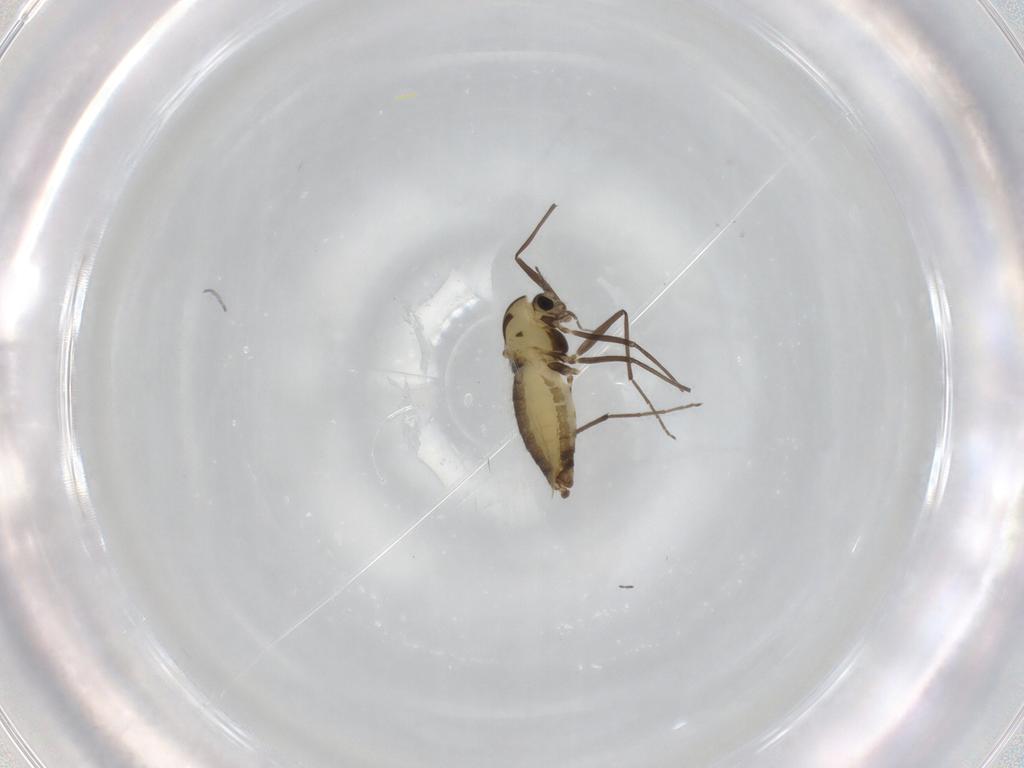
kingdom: Animalia
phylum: Arthropoda
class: Insecta
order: Diptera
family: Chironomidae
